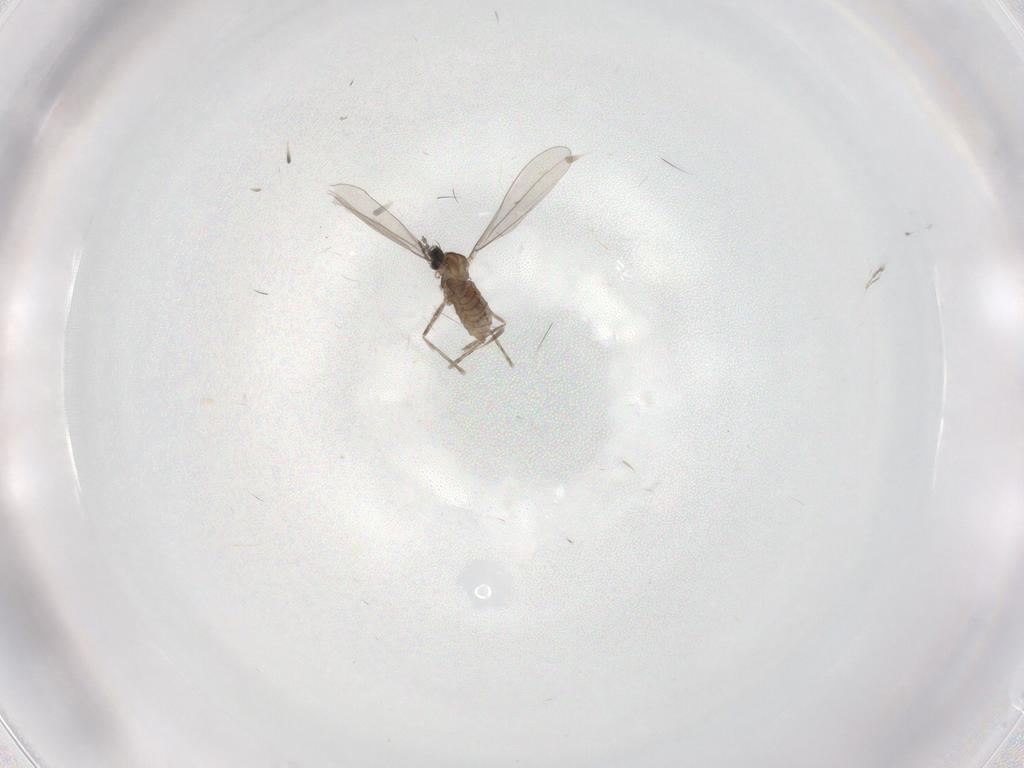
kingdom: Animalia
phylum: Arthropoda
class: Insecta
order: Diptera
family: Cecidomyiidae
